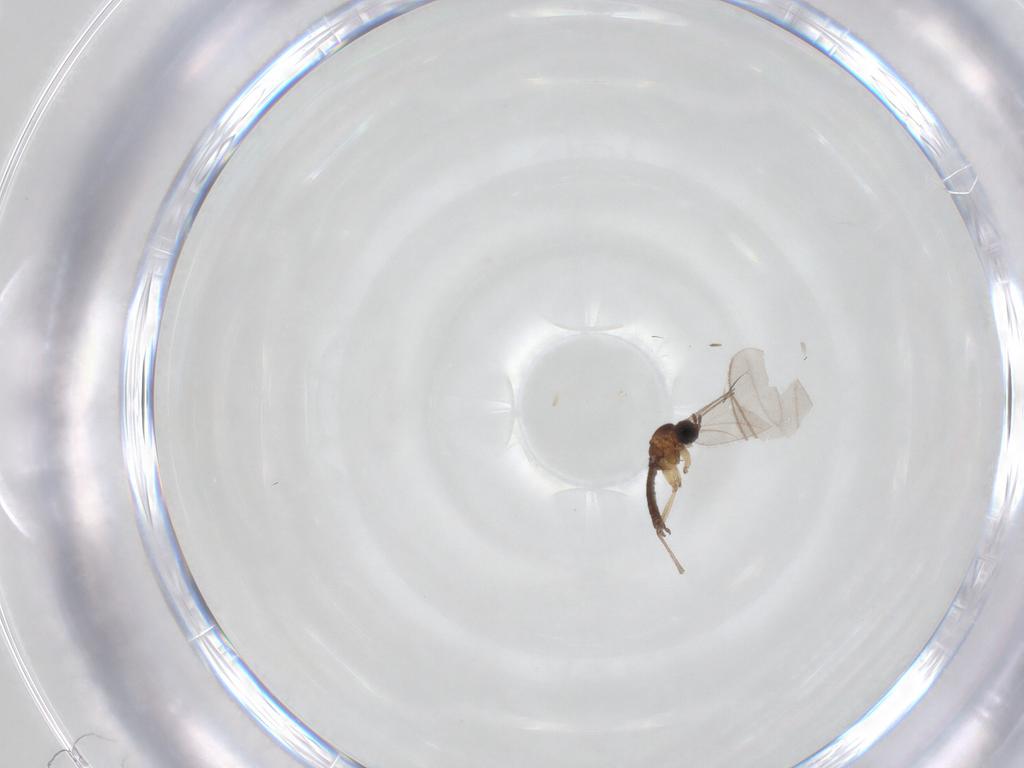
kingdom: Animalia
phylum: Arthropoda
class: Insecta
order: Diptera
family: Sciaridae
